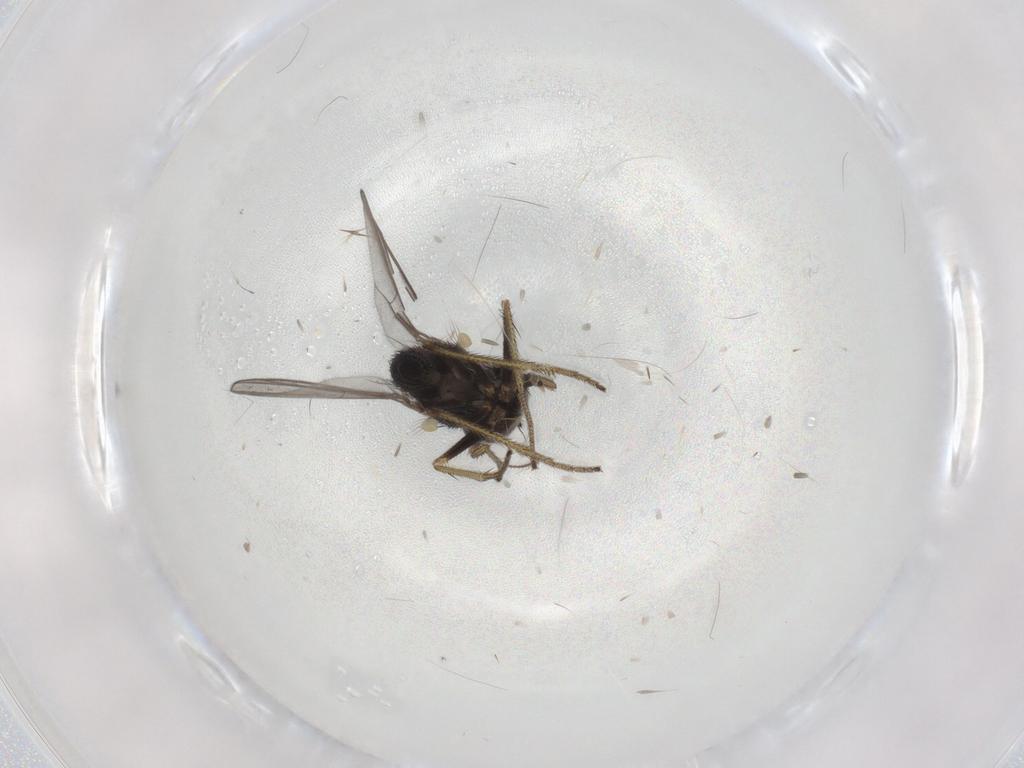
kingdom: Animalia
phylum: Arthropoda
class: Insecta
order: Diptera
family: Dolichopodidae
